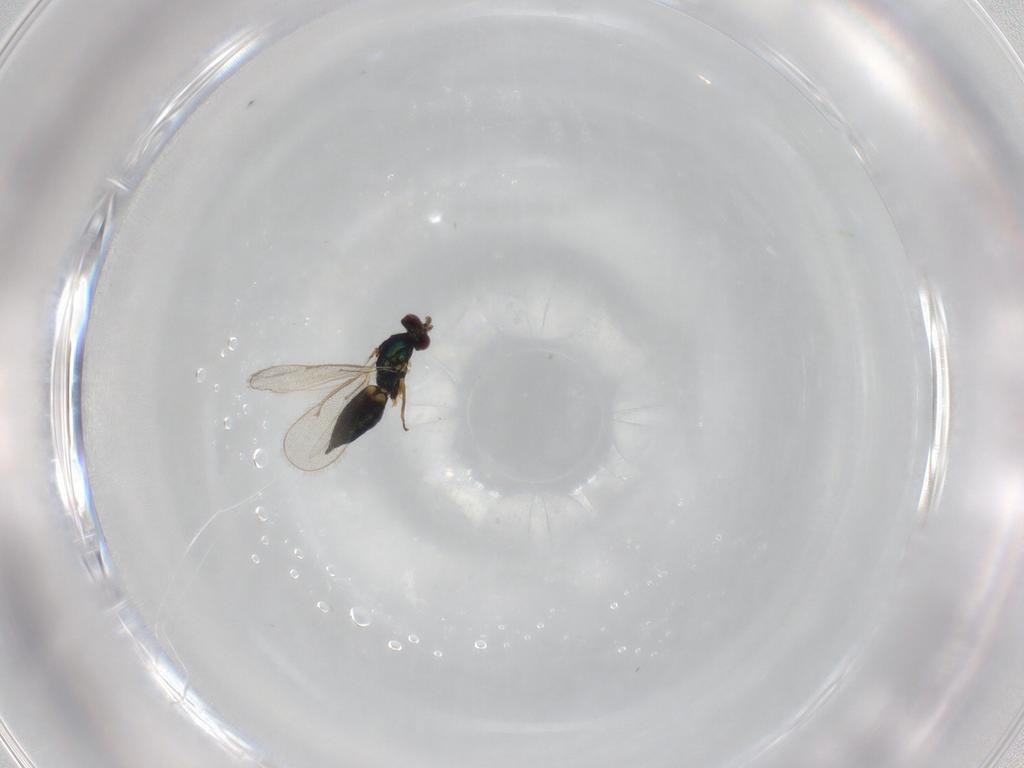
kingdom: Animalia
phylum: Arthropoda
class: Insecta
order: Hymenoptera
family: Eulophidae
